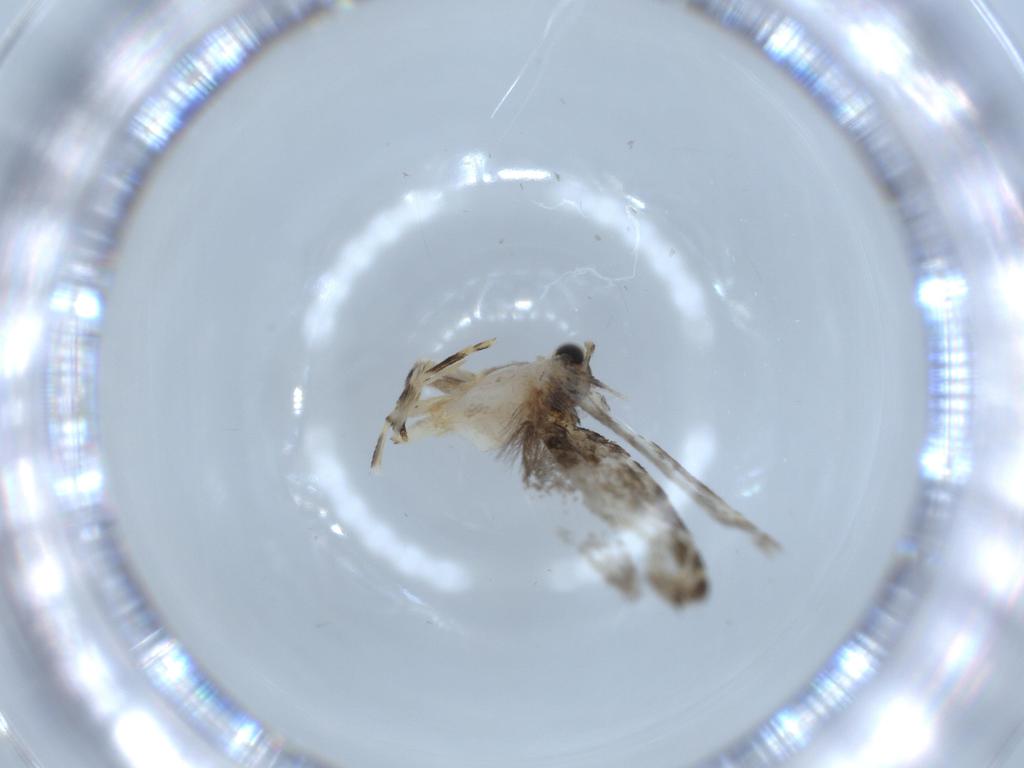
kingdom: Animalia
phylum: Arthropoda
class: Insecta
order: Lepidoptera
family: Tineidae
